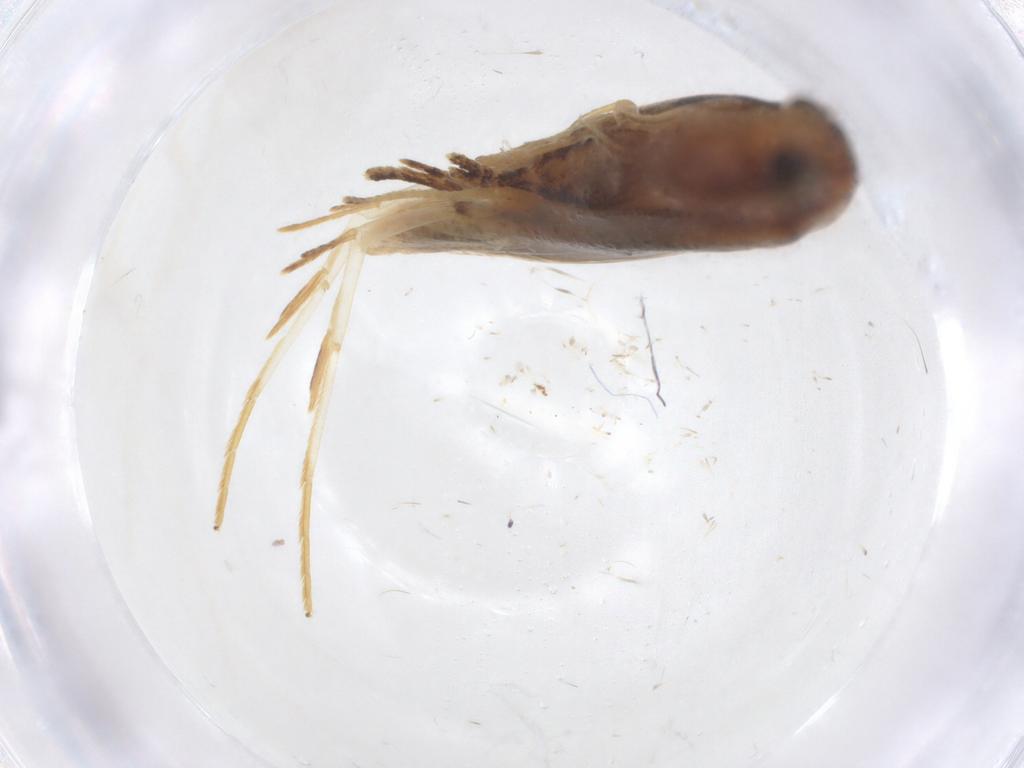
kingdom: Animalia
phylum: Arthropoda
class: Insecta
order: Lepidoptera
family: Lecithoceridae
